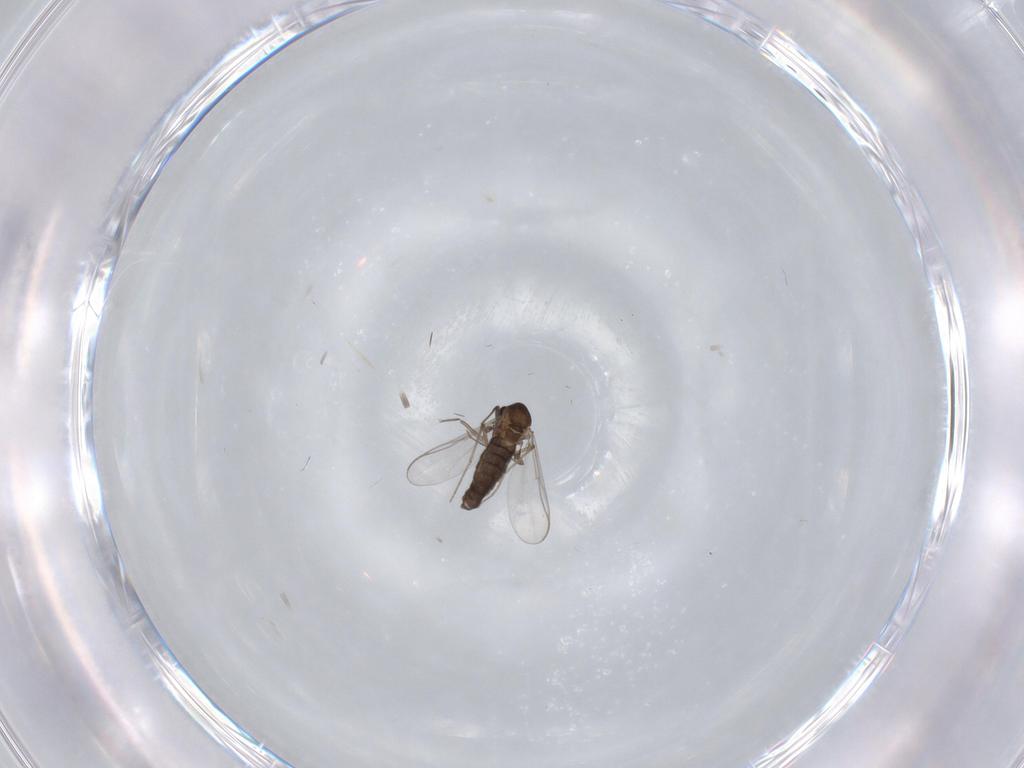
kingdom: Animalia
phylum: Arthropoda
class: Insecta
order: Diptera
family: Chironomidae
